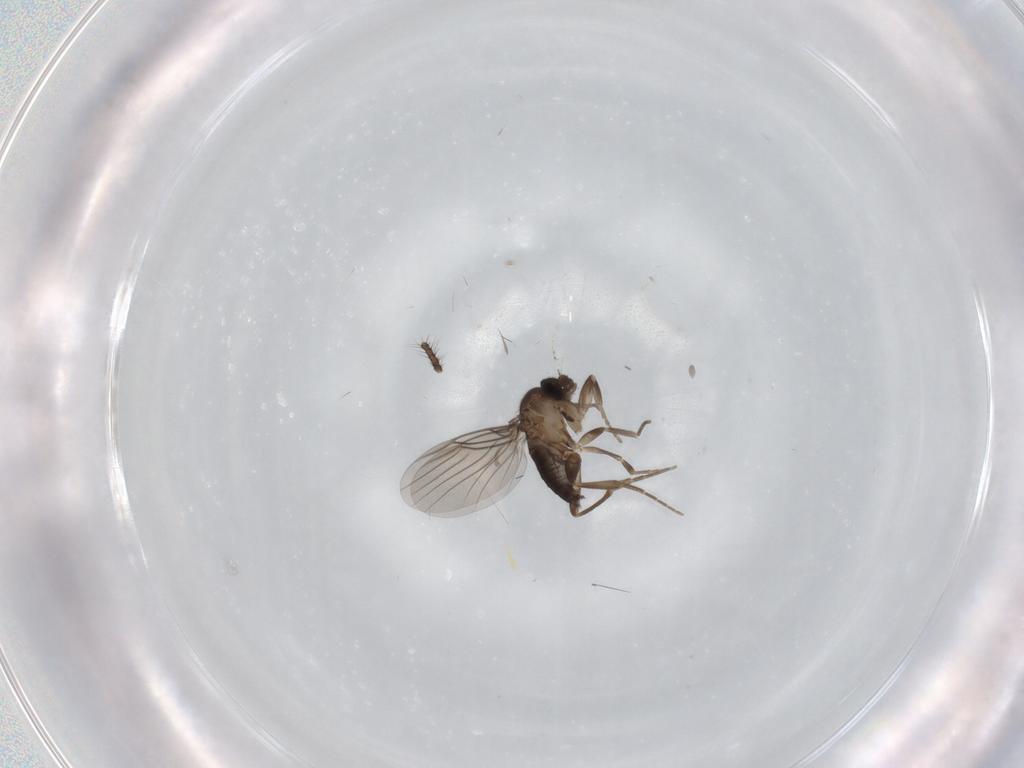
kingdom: Animalia
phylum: Arthropoda
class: Insecta
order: Diptera
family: Phoridae
